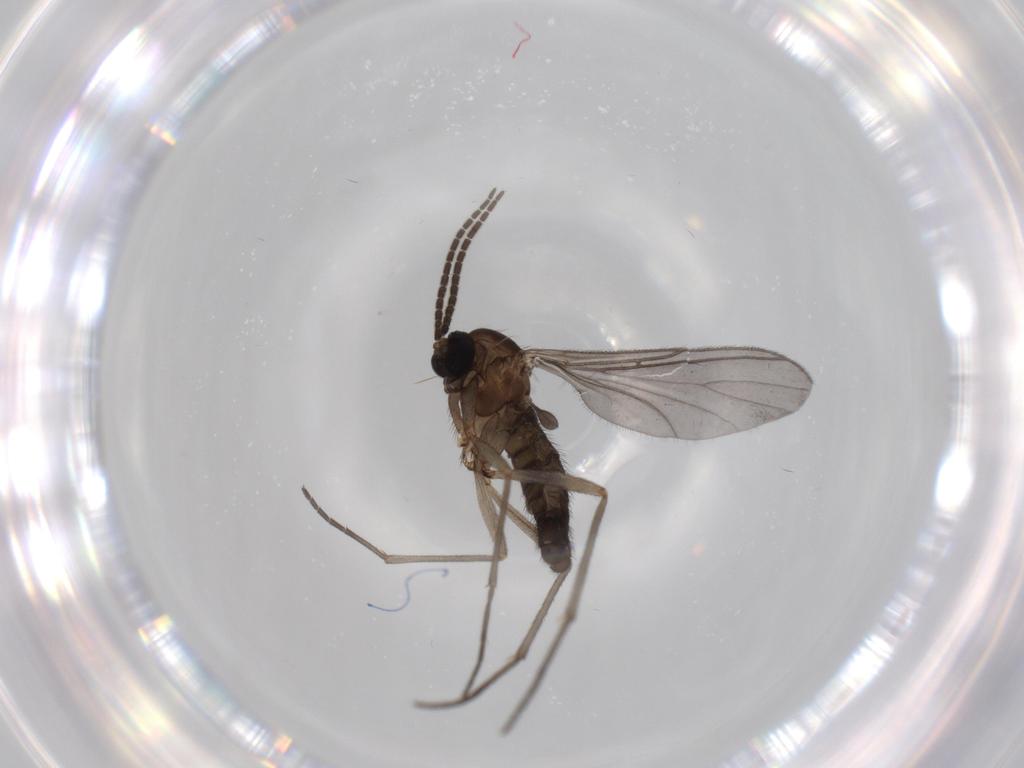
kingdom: Animalia
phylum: Arthropoda
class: Insecta
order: Diptera
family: Sciaridae
